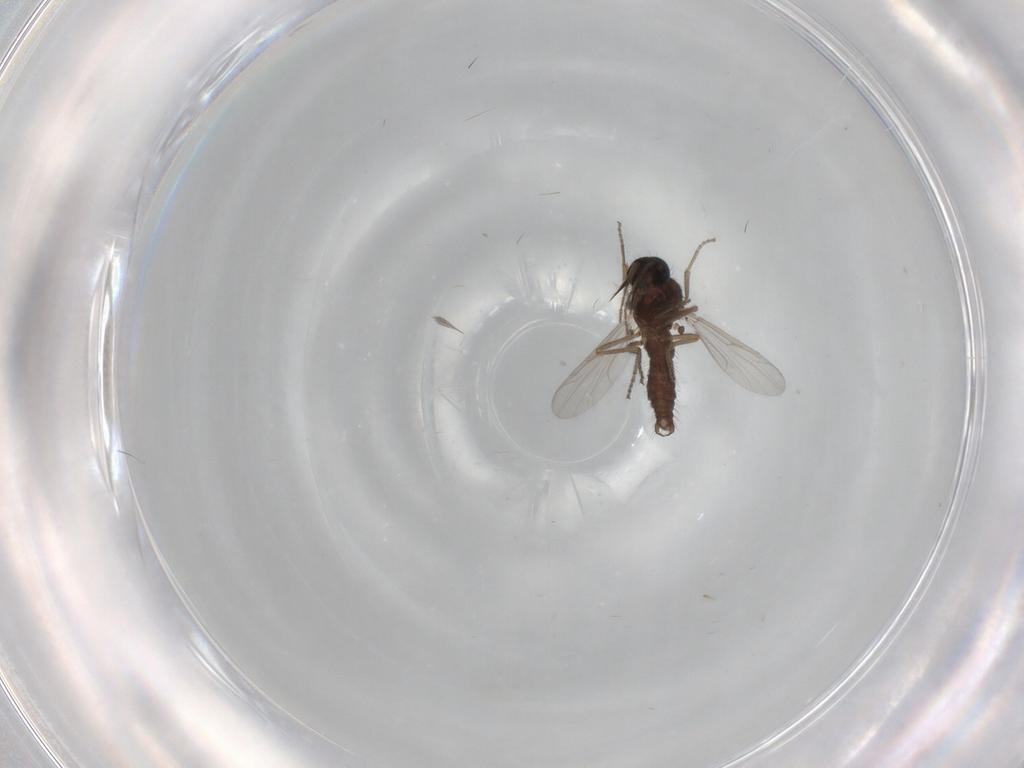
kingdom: Animalia
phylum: Arthropoda
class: Insecta
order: Diptera
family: Ceratopogonidae
